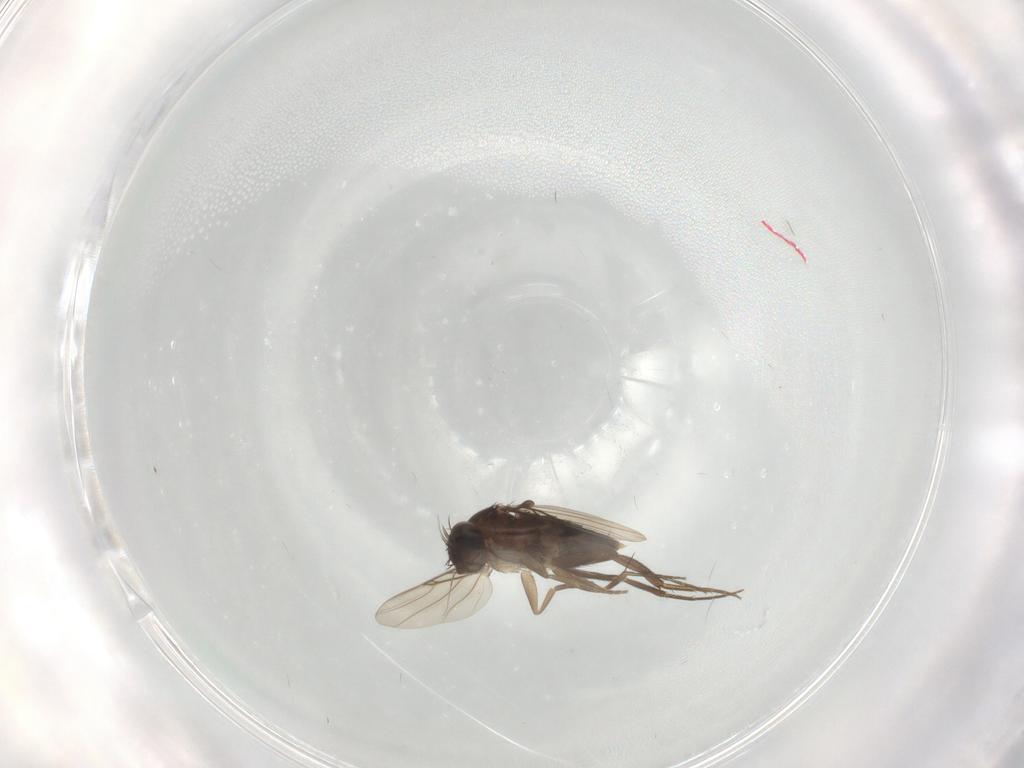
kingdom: Animalia
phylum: Arthropoda
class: Insecta
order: Diptera
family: Phoridae
